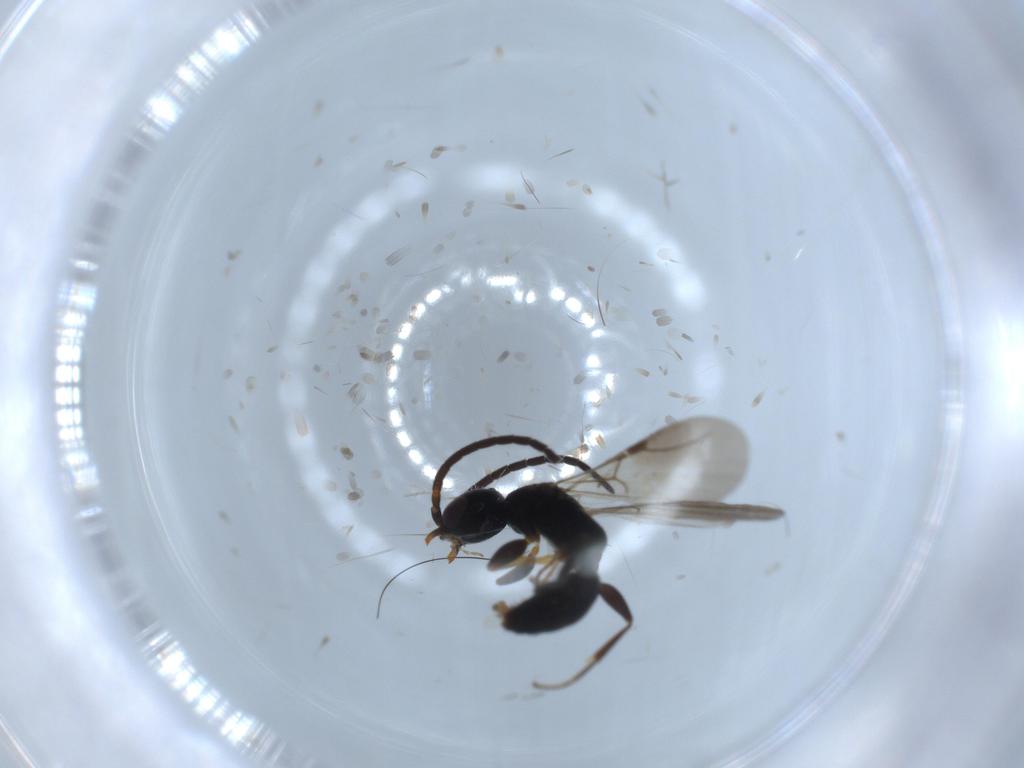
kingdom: Animalia
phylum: Arthropoda
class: Insecta
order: Hymenoptera
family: Bethylidae
